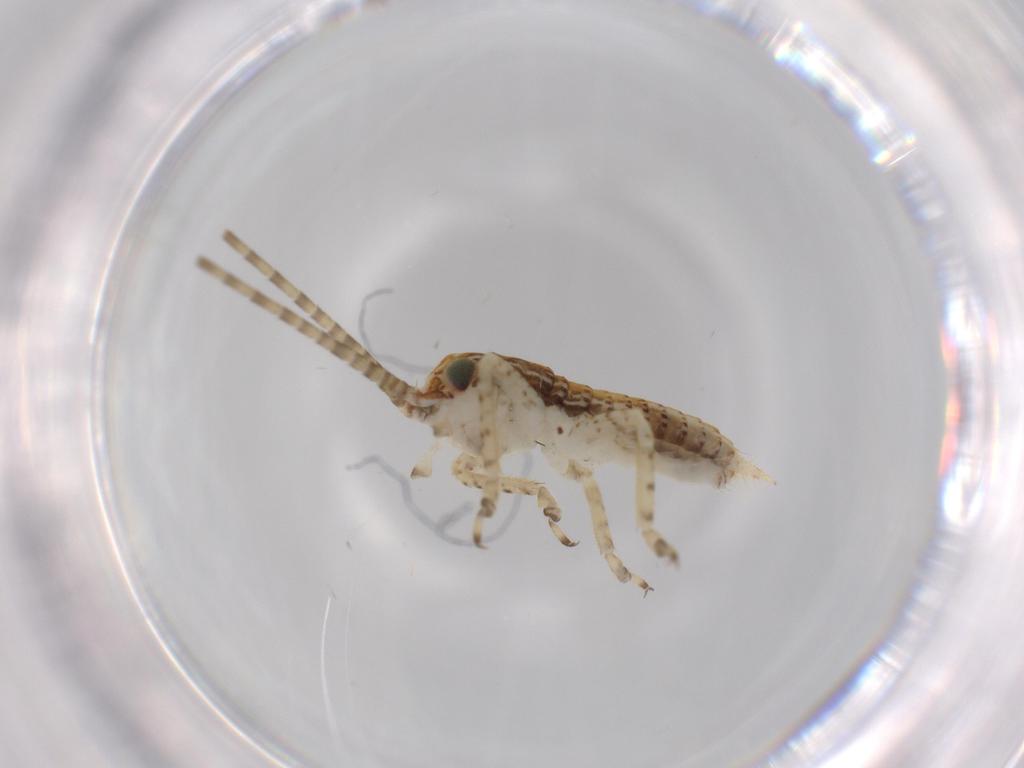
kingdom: Animalia
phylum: Arthropoda
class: Insecta
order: Orthoptera
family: Gryllidae
